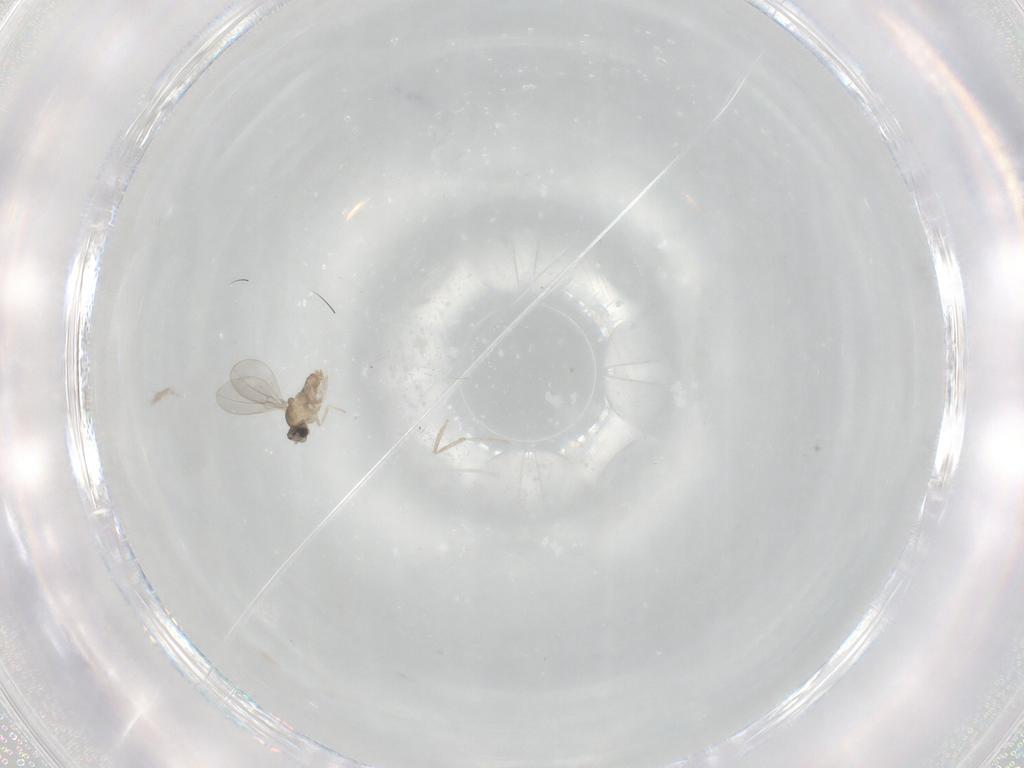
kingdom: Animalia
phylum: Arthropoda
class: Insecta
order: Diptera
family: Cecidomyiidae
